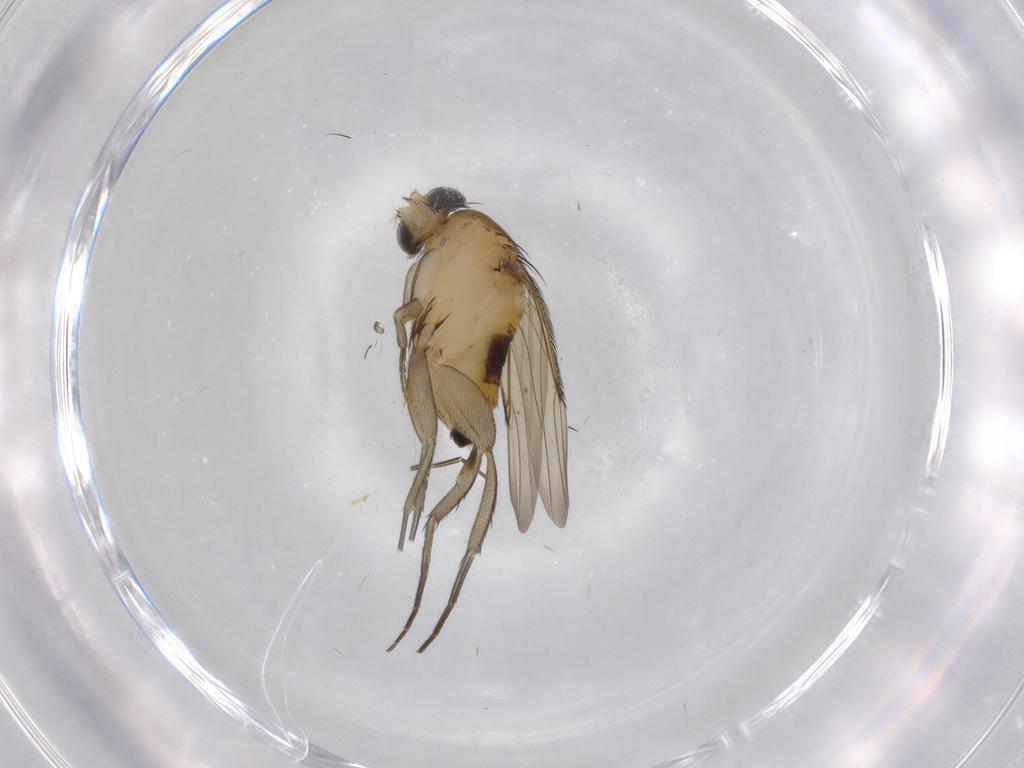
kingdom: Animalia
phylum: Arthropoda
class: Insecta
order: Diptera
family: Phoridae
